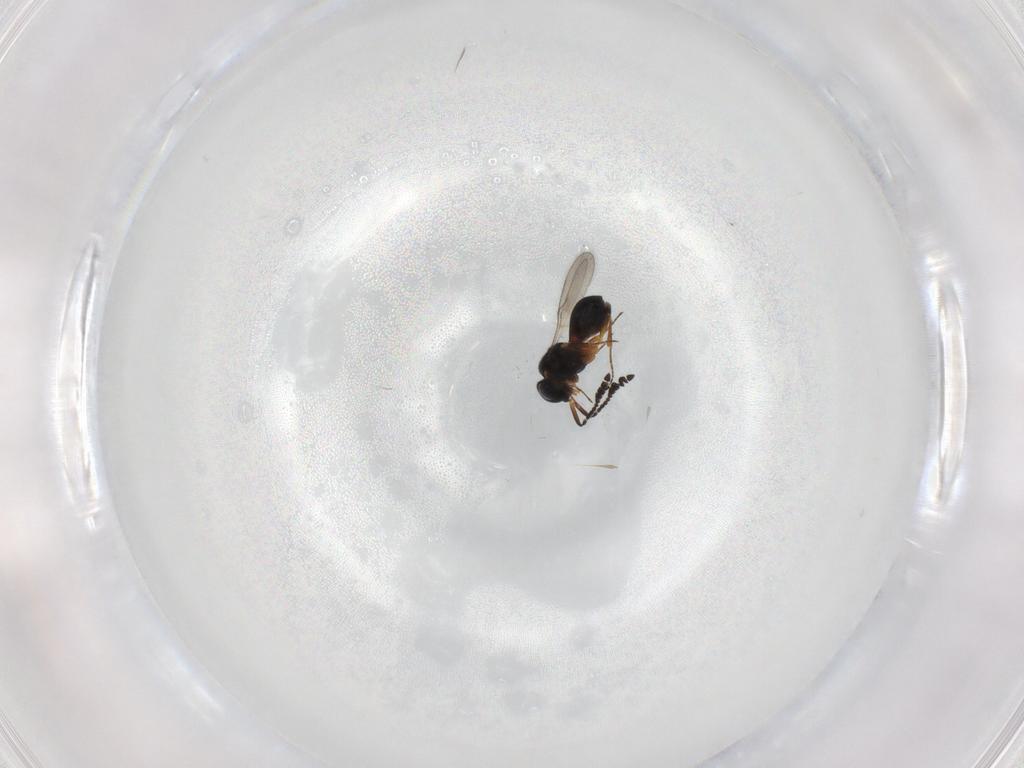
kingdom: Animalia
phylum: Arthropoda
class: Insecta
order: Hymenoptera
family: Scelionidae
